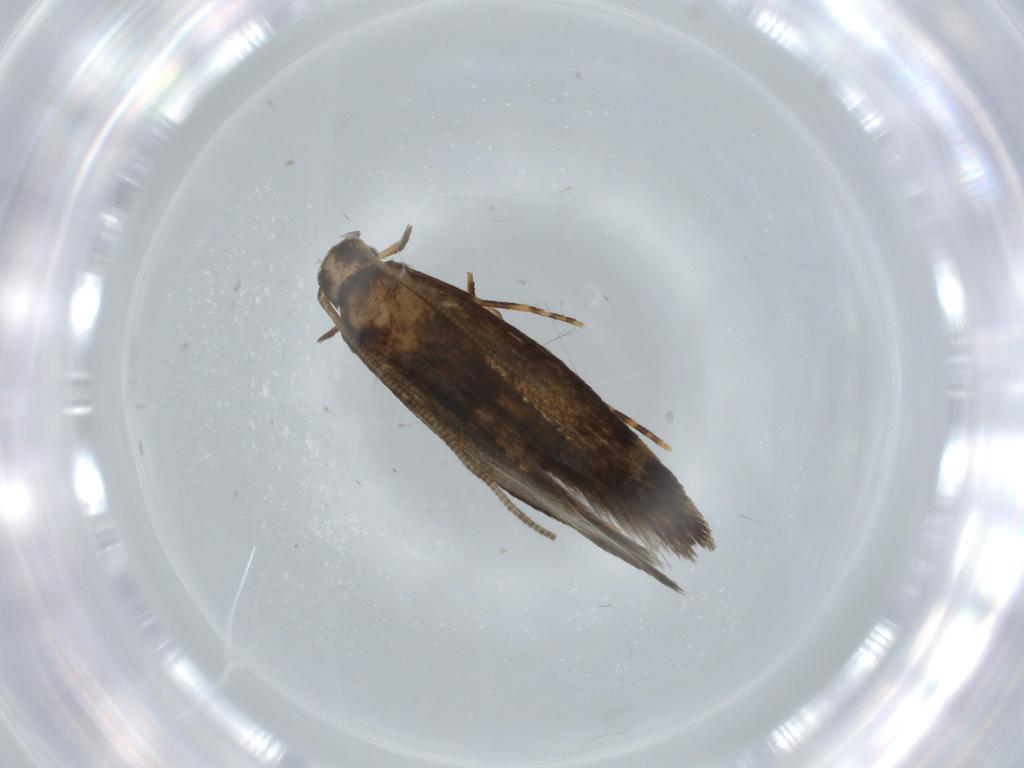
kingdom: Animalia
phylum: Arthropoda
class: Insecta
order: Lepidoptera
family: Tineidae
